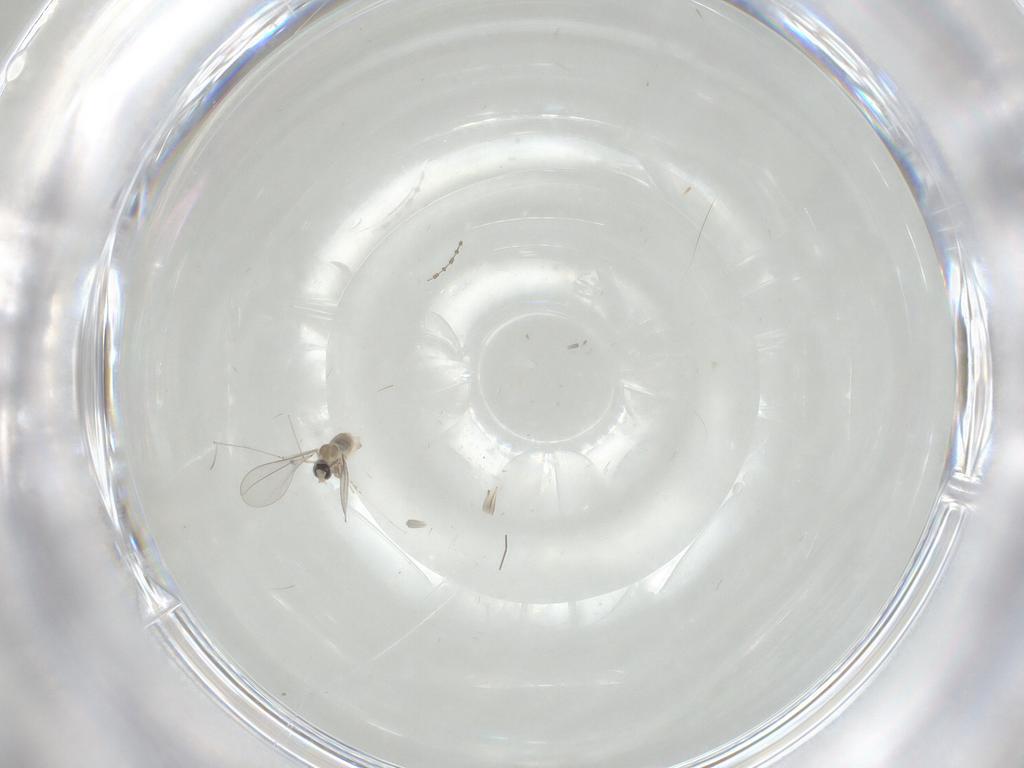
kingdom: Animalia
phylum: Arthropoda
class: Insecta
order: Diptera
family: Cecidomyiidae
